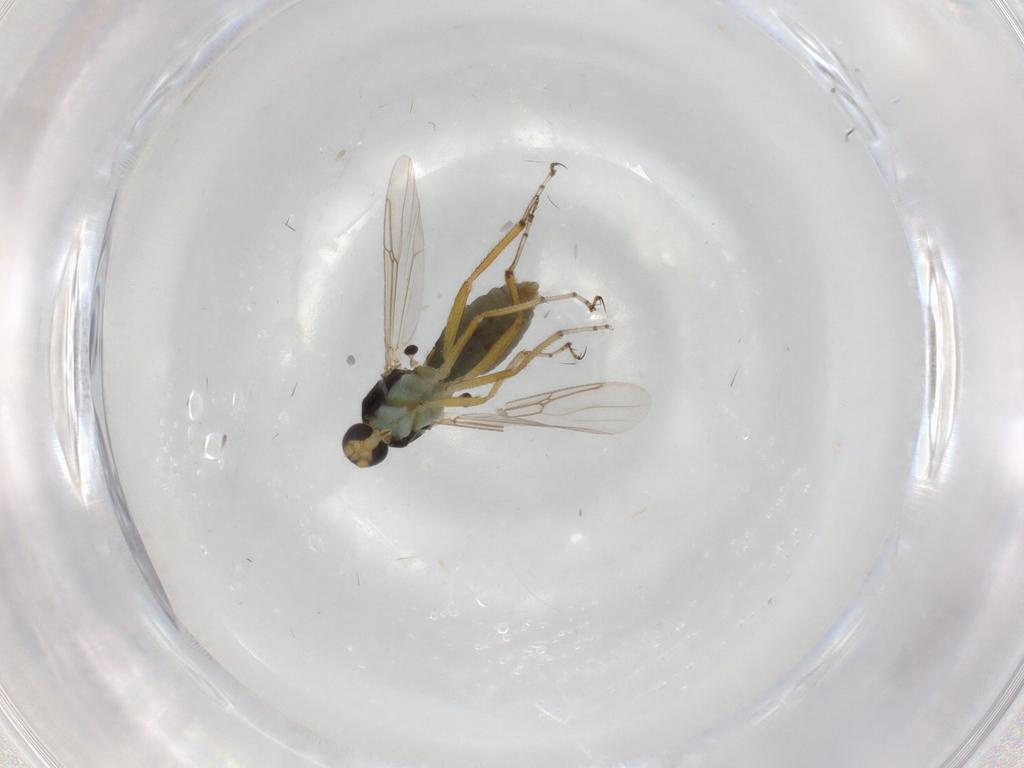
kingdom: Animalia
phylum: Arthropoda
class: Insecta
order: Diptera
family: Ceratopogonidae
